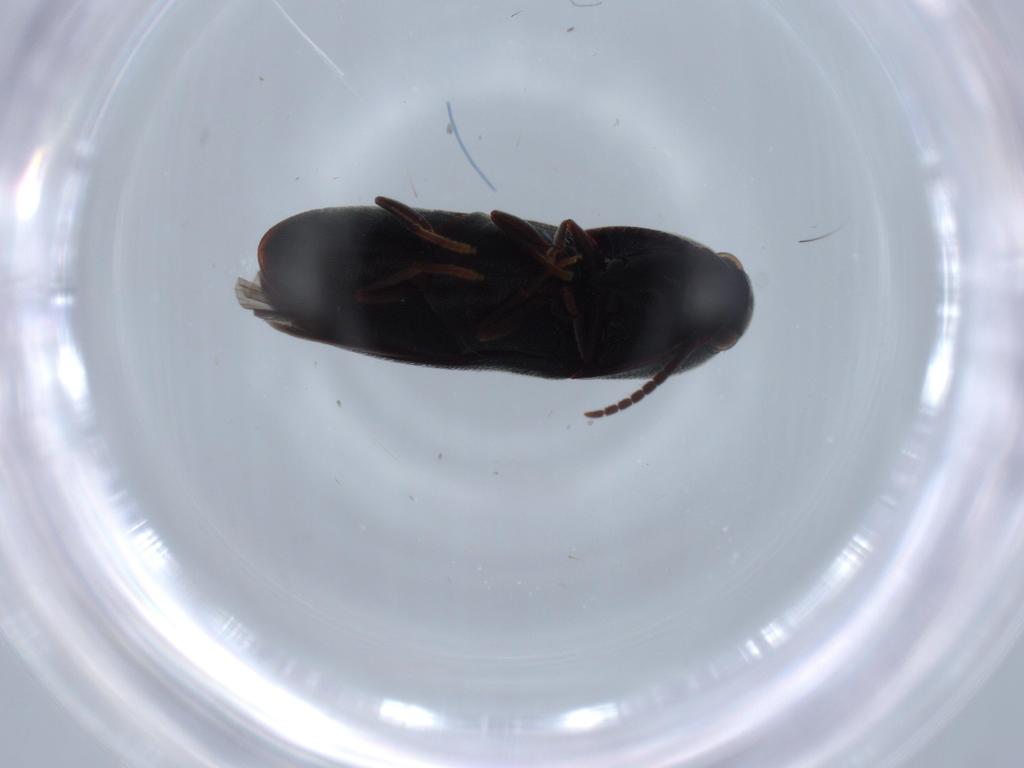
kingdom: Animalia
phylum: Arthropoda
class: Insecta
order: Coleoptera
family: Eucnemidae
